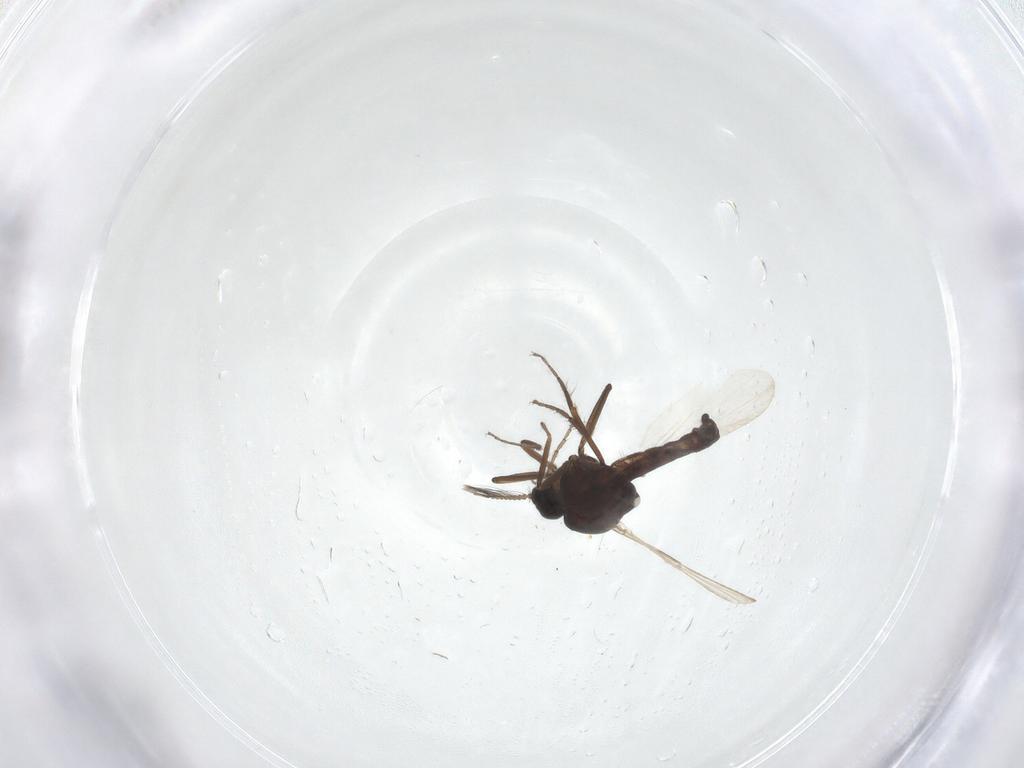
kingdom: Animalia
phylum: Arthropoda
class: Insecta
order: Diptera
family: Ceratopogonidae
